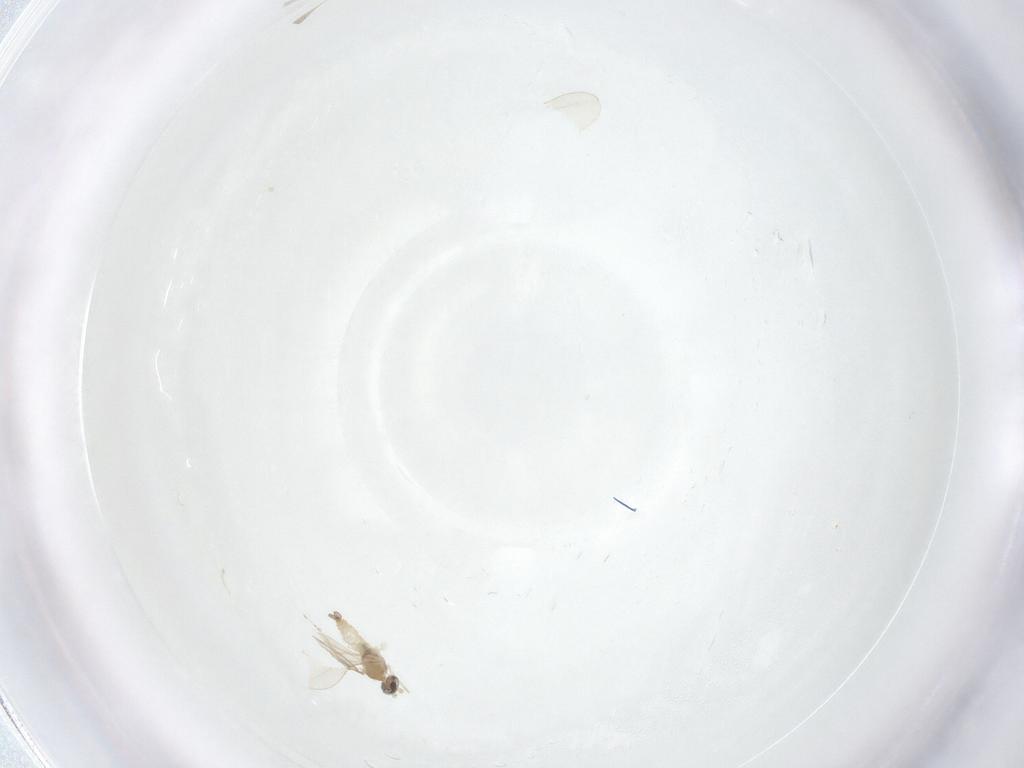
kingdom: Animalia
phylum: Arthropoda
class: Insecta
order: Diptera
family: Cecidomyiidae
